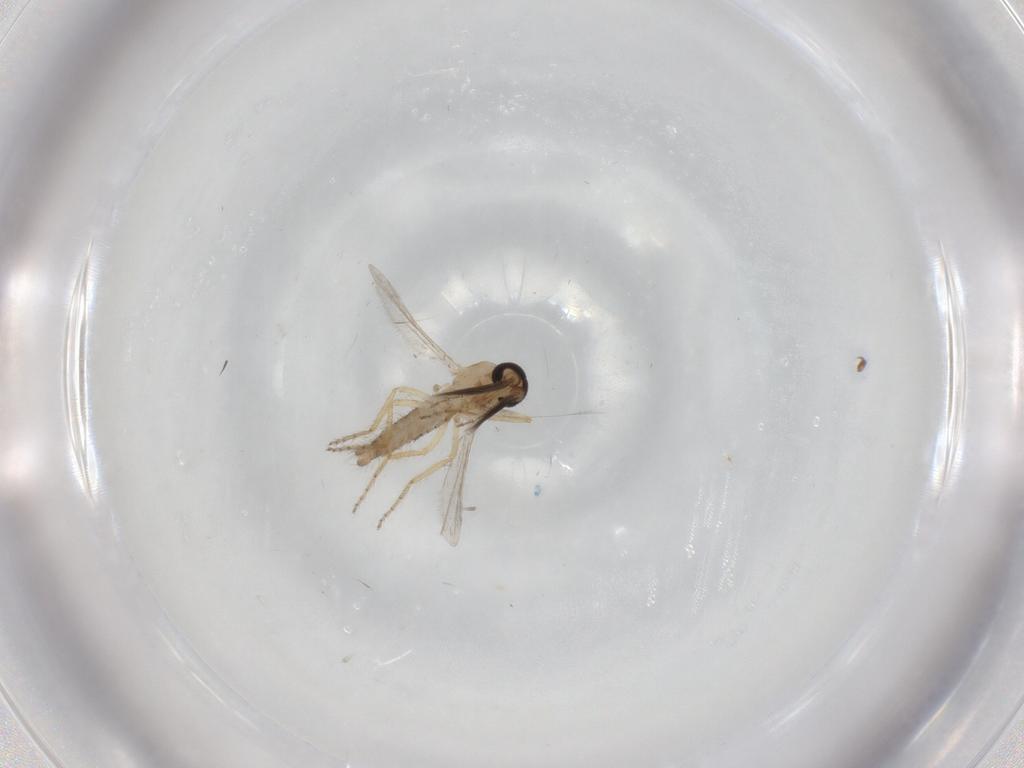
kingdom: Animalia
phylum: Arthropoda
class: Insecta
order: Diptera
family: Ceratopogonidae
